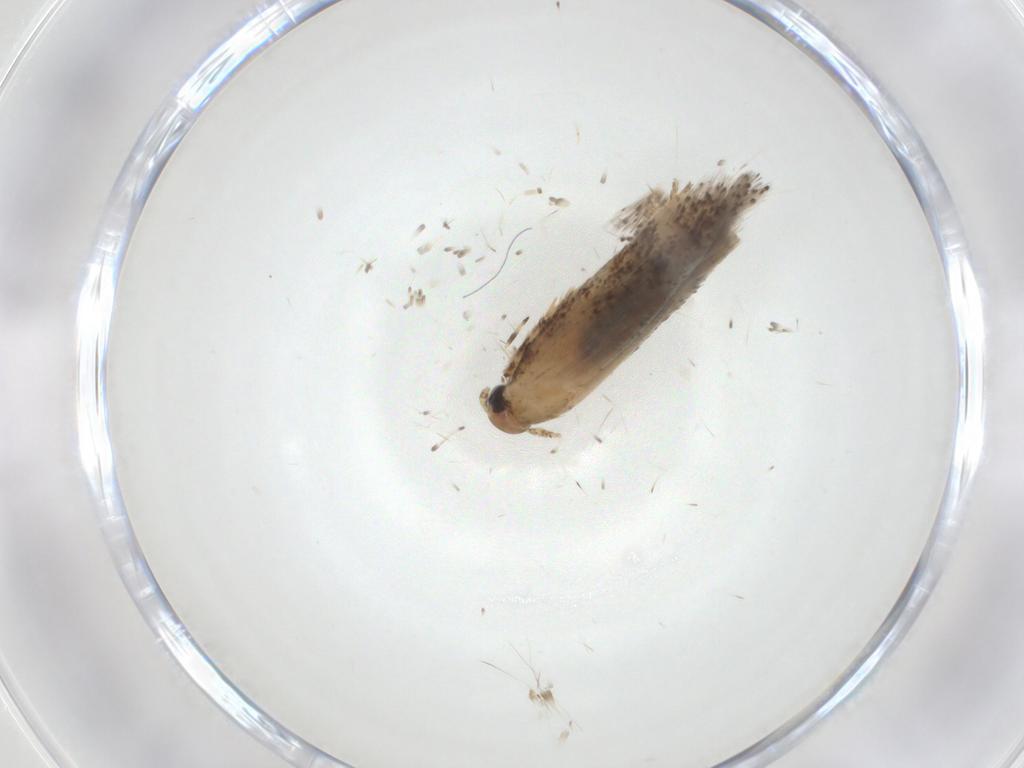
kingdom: Animalia
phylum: Arthropoda
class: Insecta
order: Lepidoptera
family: Gelechiidae
